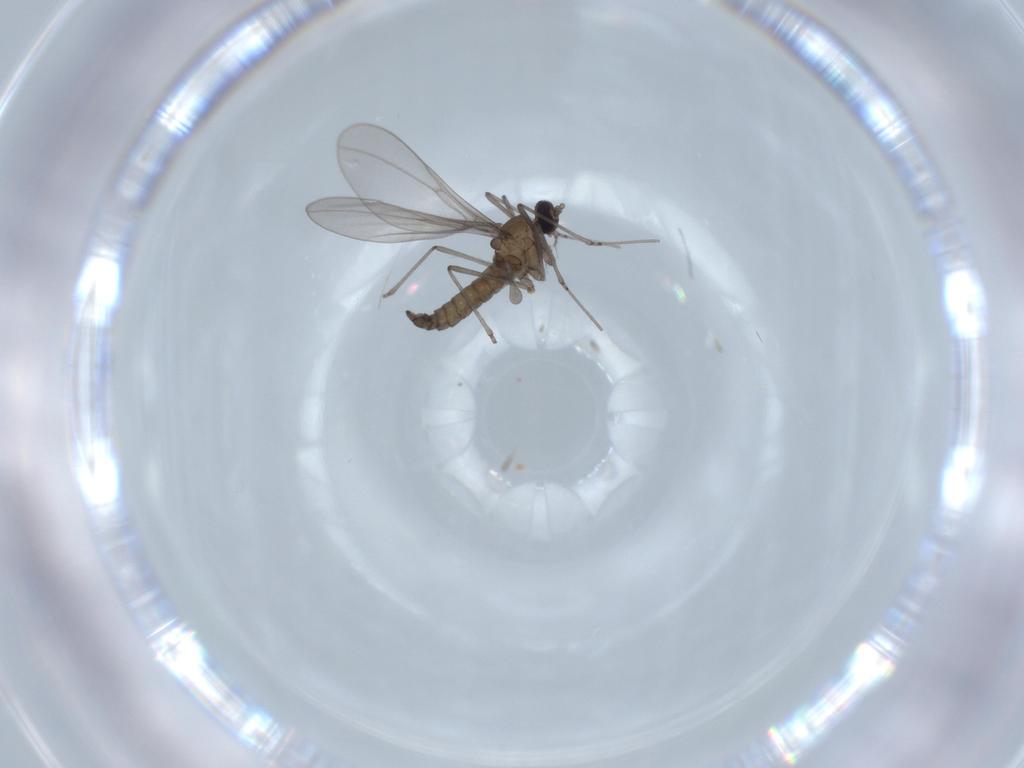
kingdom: Animalia
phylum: Arthropoda
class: Insecta
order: Diptera
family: Cecidomyiidae
